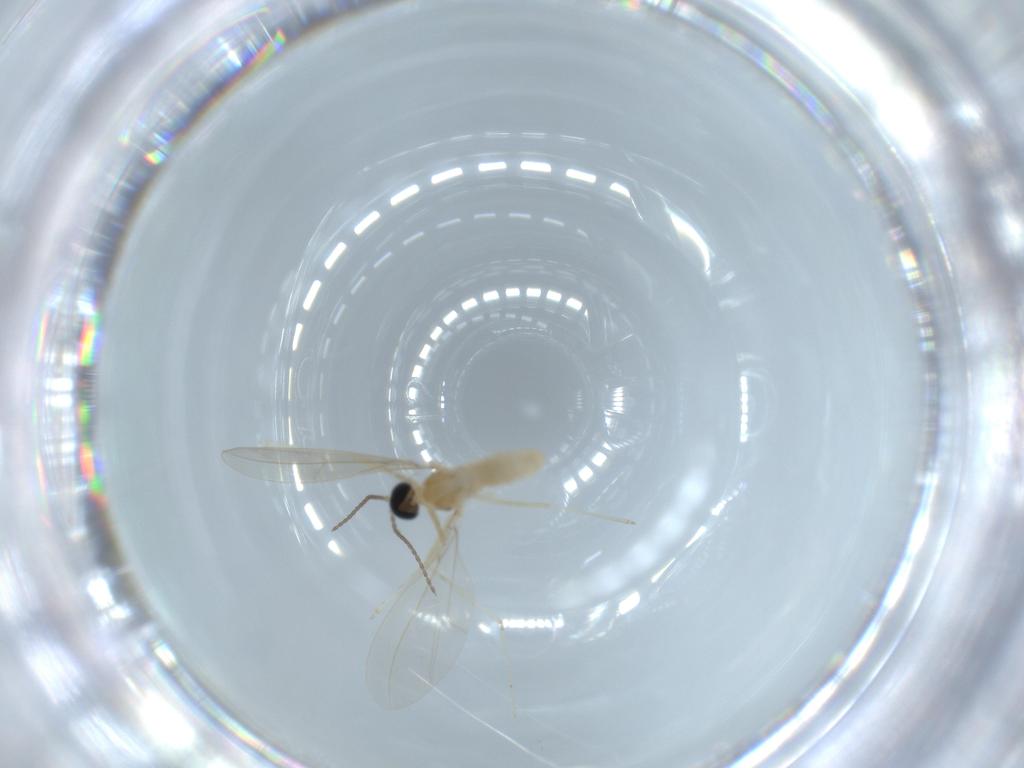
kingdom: Animalia
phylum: Arthropoda
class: Insecta
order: Diptera
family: Cecidomyiidae
